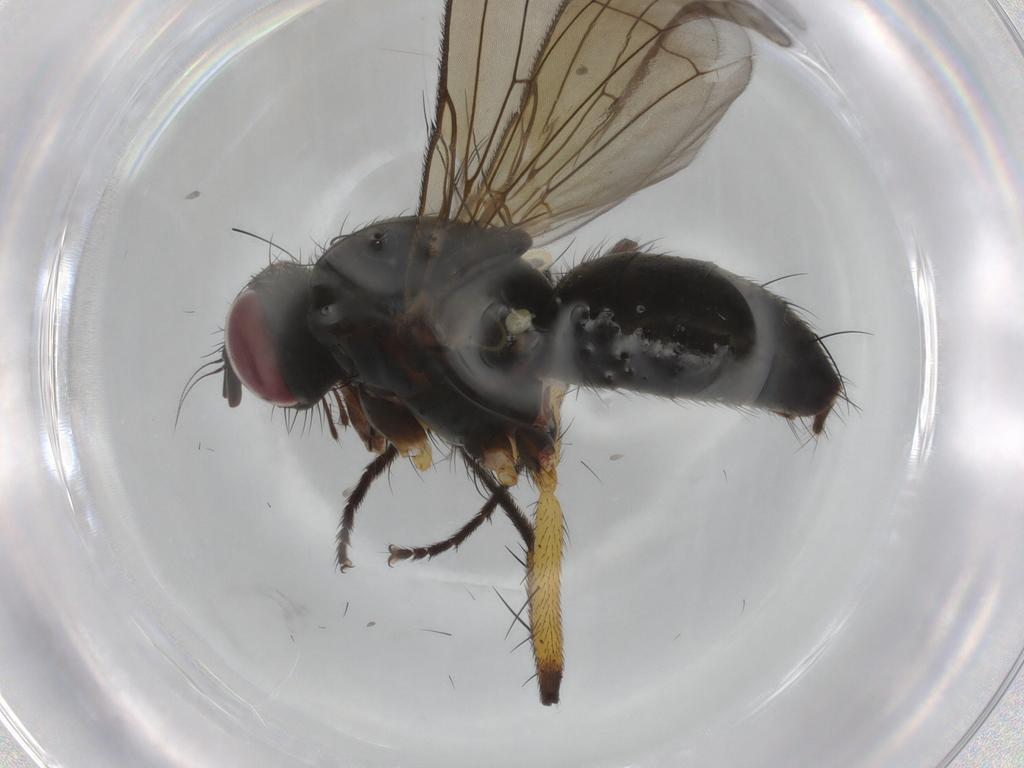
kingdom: Animalia
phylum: Arthropoda
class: Insecta
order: Diptera
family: Muscidae
